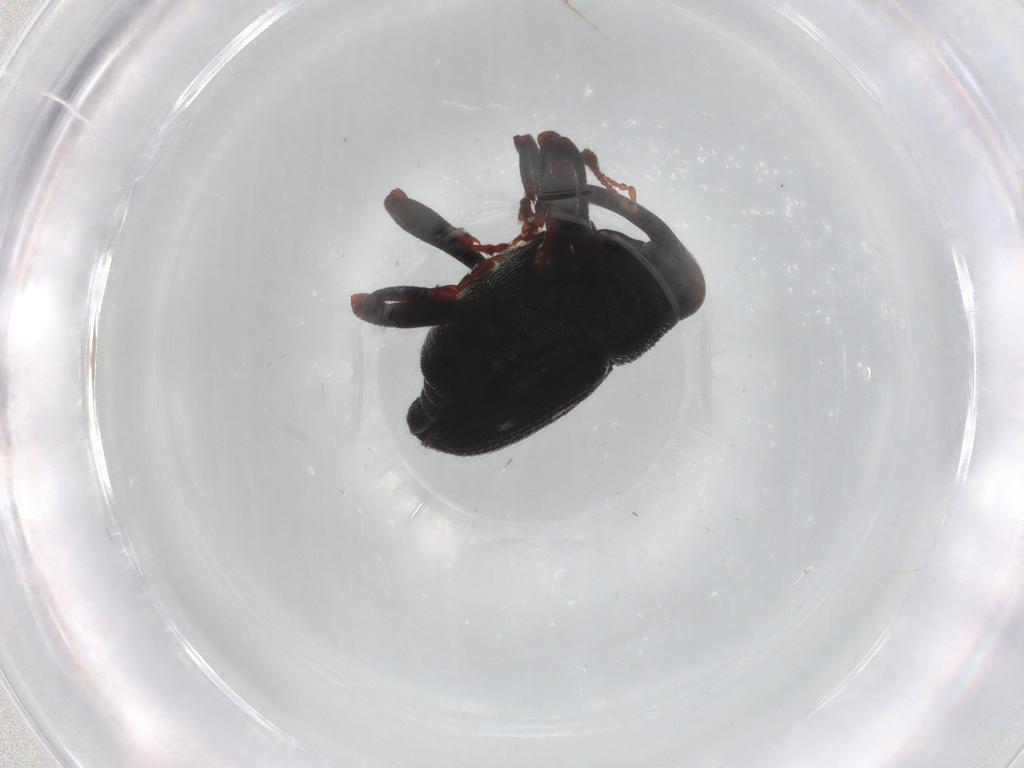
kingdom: Animalia
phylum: Arthropoda
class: Insecta
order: Coleoptera
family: Curculionidae
